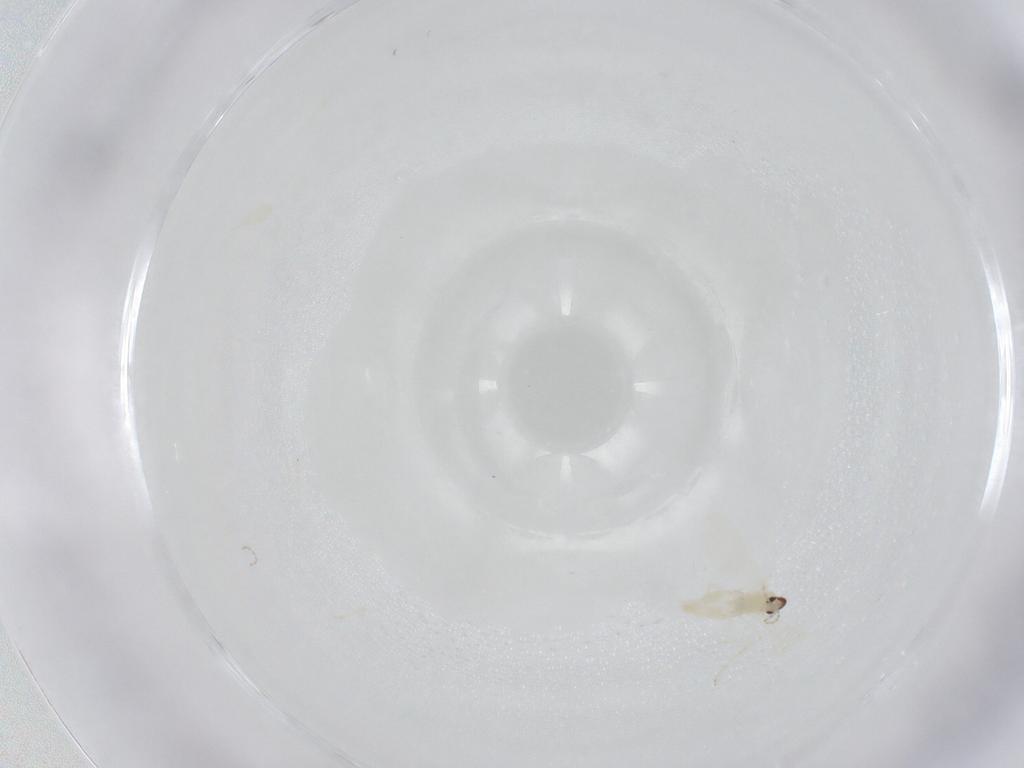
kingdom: Animalia
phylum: Arthropoda
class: Insecta
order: Diptera
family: Cecidomyiidae
